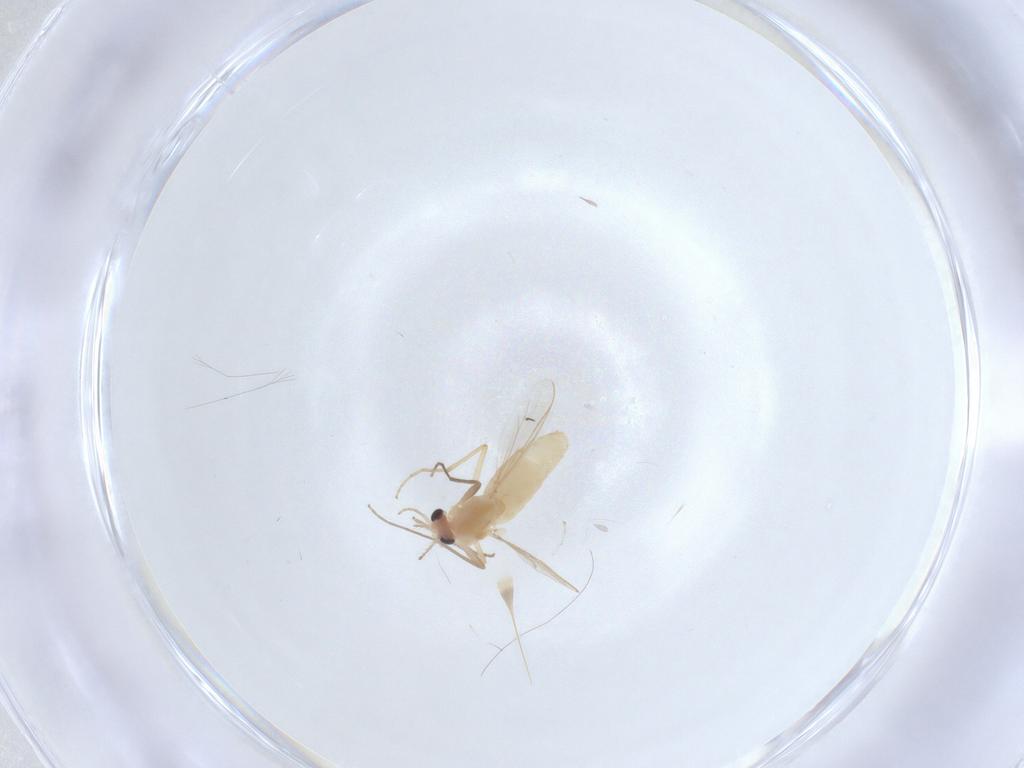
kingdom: Animalia
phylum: Arthropoda
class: Insecta
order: Diptera
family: Chironomidae
